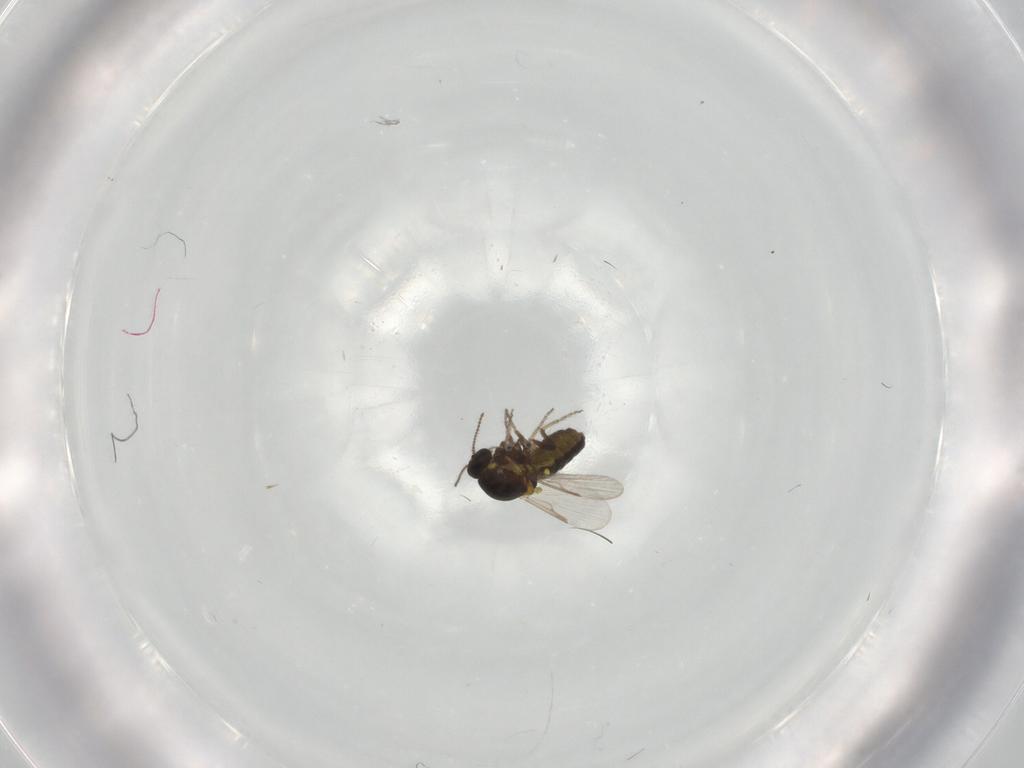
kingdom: Animalia
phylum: Arthropoda
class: Insecta
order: Diptera
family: Ceratopogonidae
